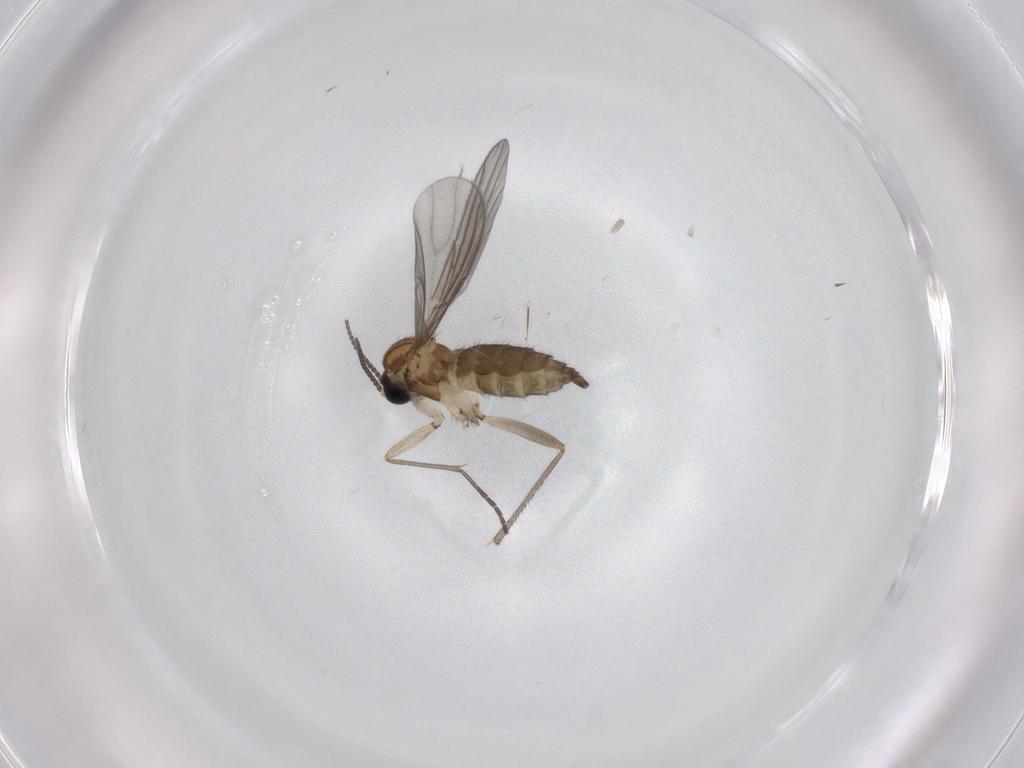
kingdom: Animalia
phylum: Arthropoda
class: Insecta
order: Diptera
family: Sciaridae
